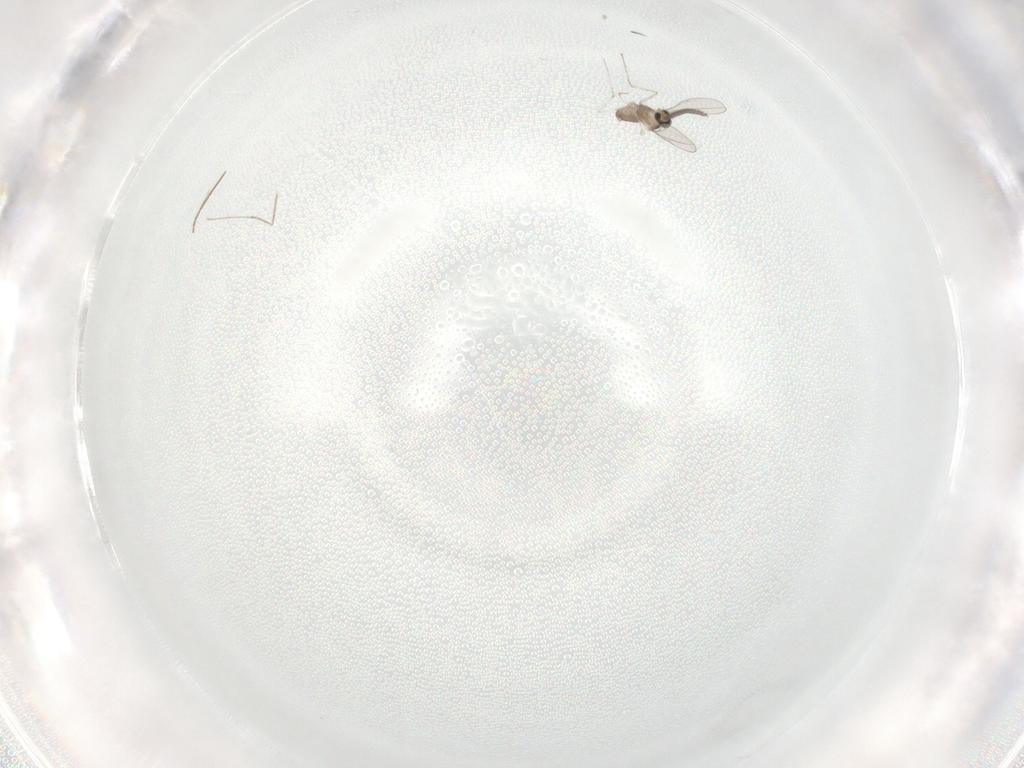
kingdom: Animalia
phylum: Arthropoda
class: Insecta
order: Diptera
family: Cecidomyiidae
